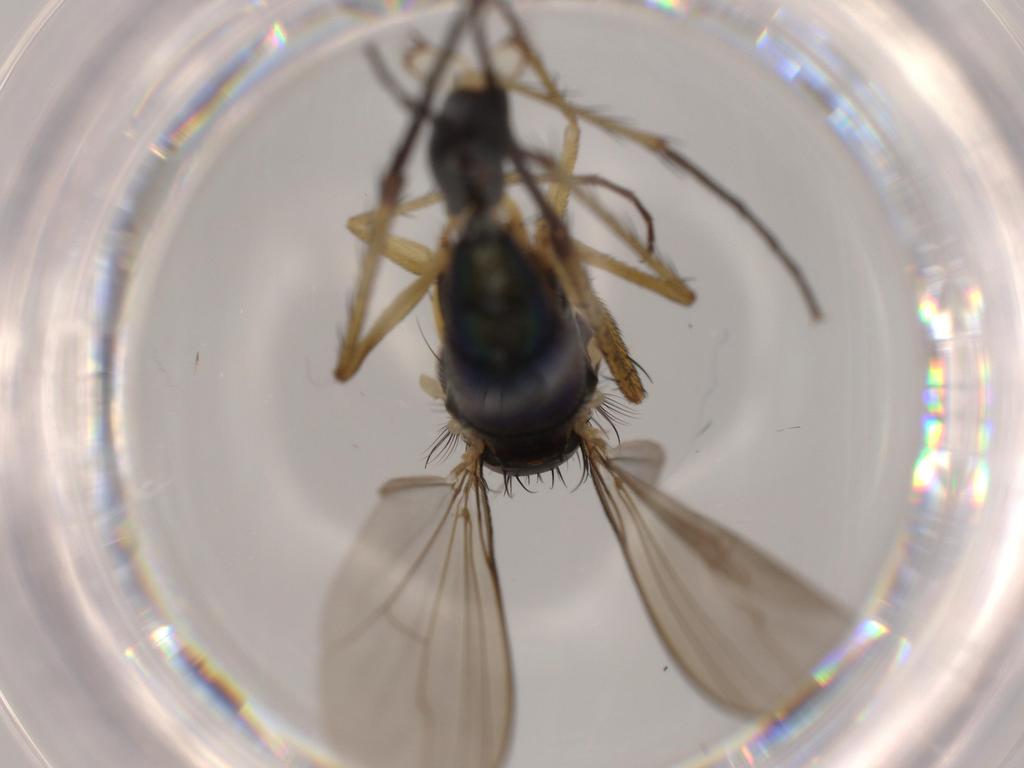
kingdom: Animalia
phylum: Arthropoda
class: Insecta
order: Diptera
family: Dolichopodidae
